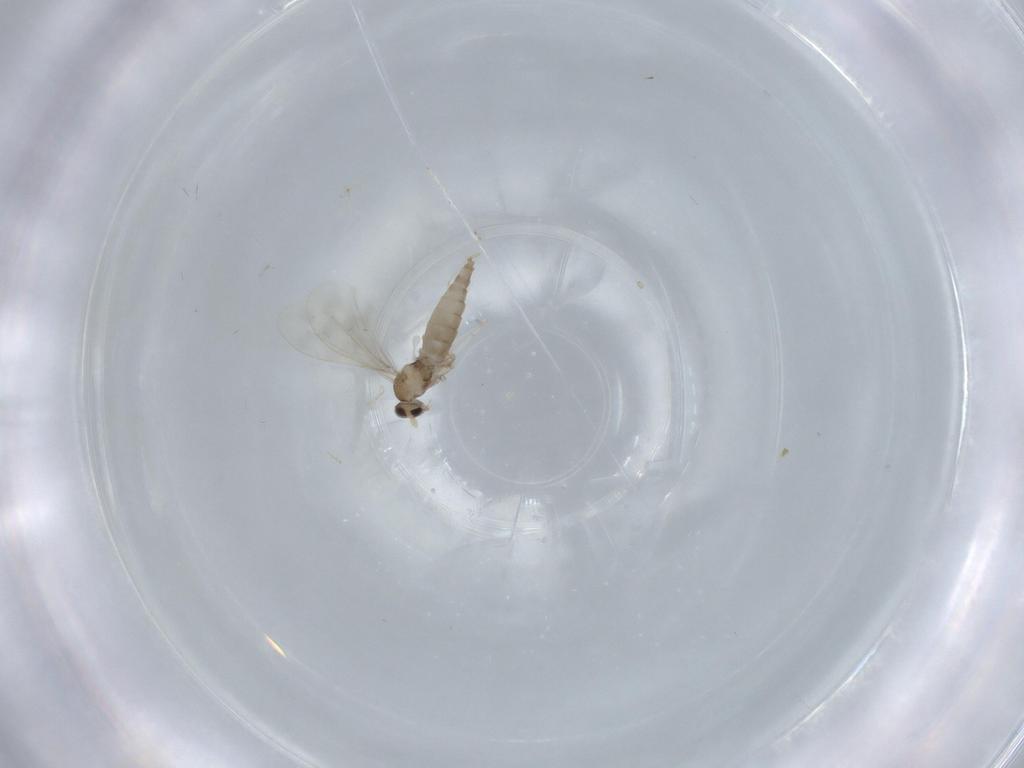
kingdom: Animalia
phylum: Arthropoda
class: Insecta
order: Diptera
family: Cecidomyiidae
